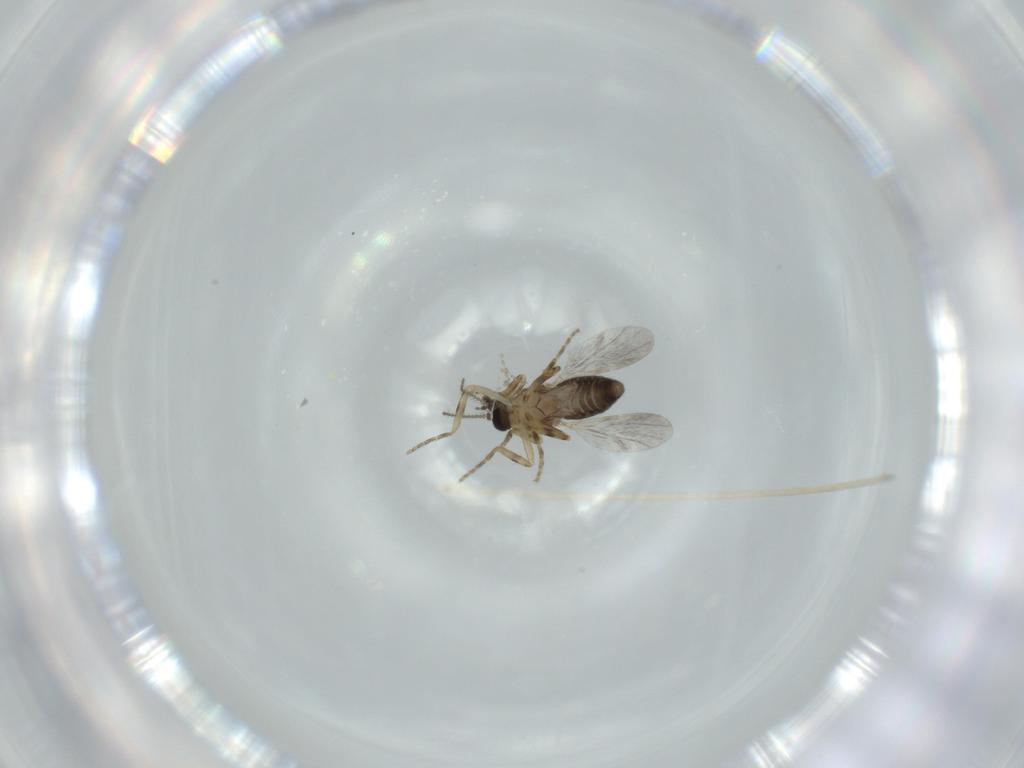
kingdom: Animalia
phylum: Arthropoda
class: Insecta
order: Diptera
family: Cecidomyiidae
